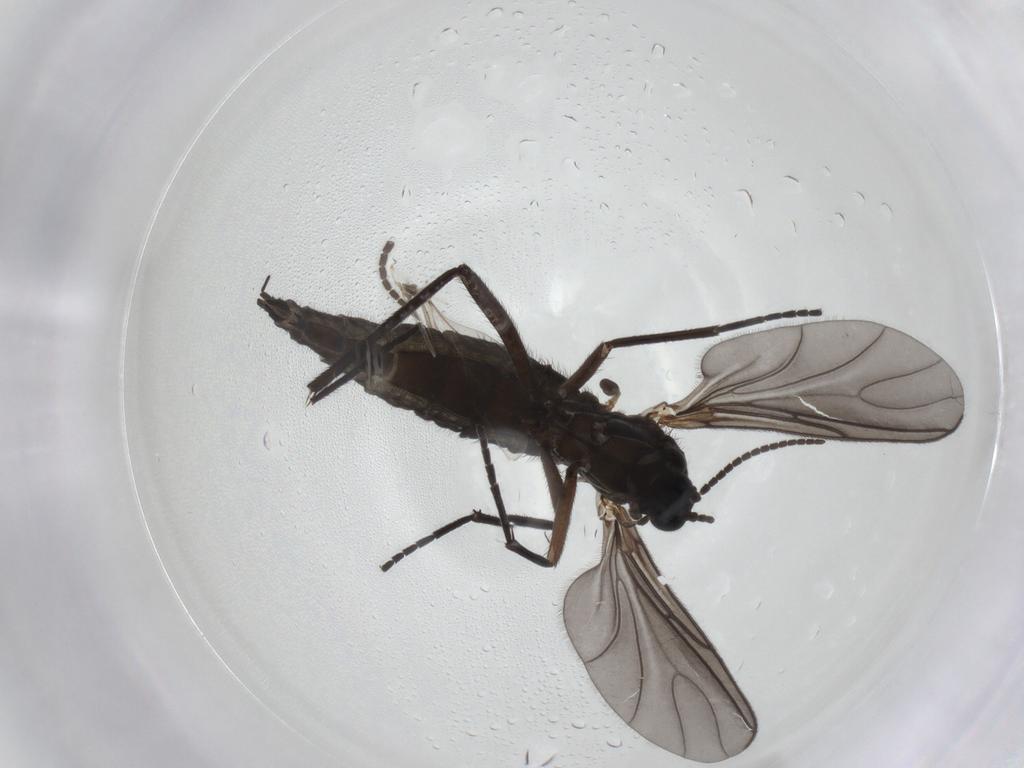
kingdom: Animalia
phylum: Arthropoda
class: Insecta
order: Diptera
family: Sciaridae
